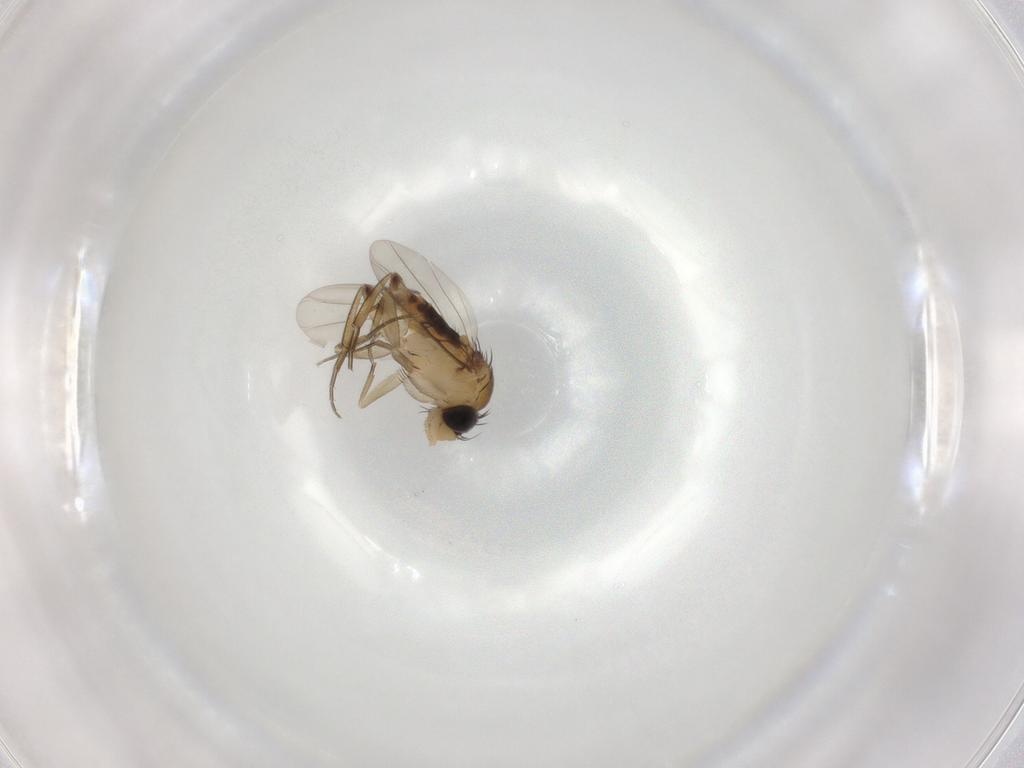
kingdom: Animalia
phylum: Arthropoda
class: Insecta
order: Diptera
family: Phoridae
